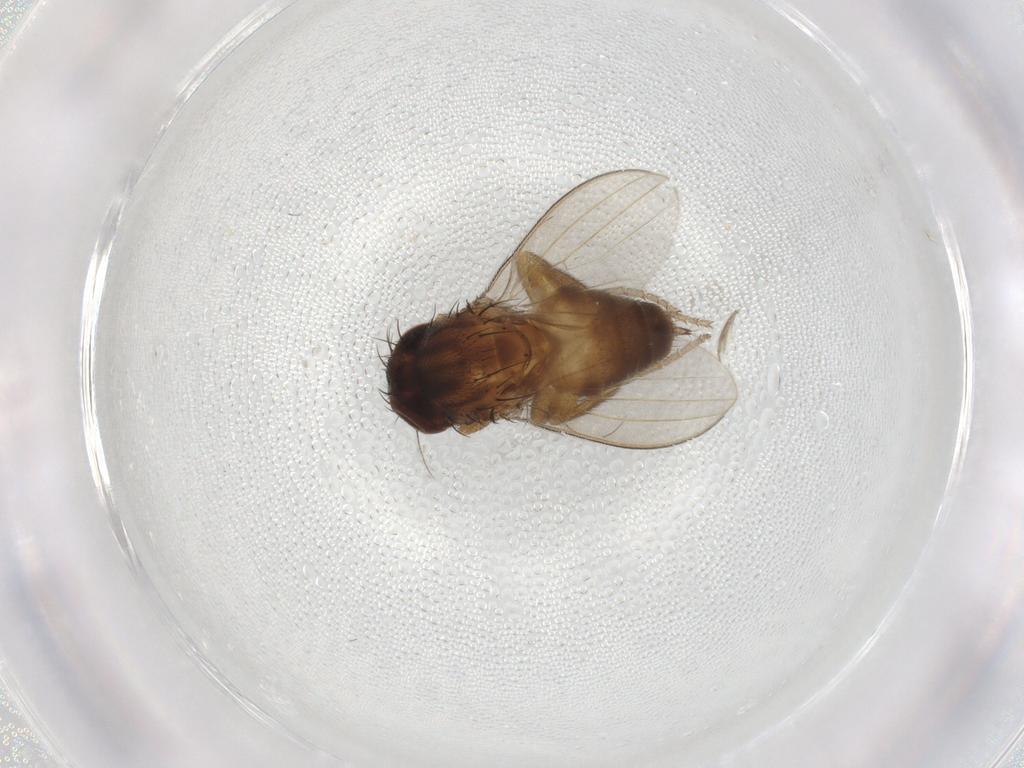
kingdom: Animalia
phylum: Arthropoda
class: Insecta
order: Diptera
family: Milichiidae
